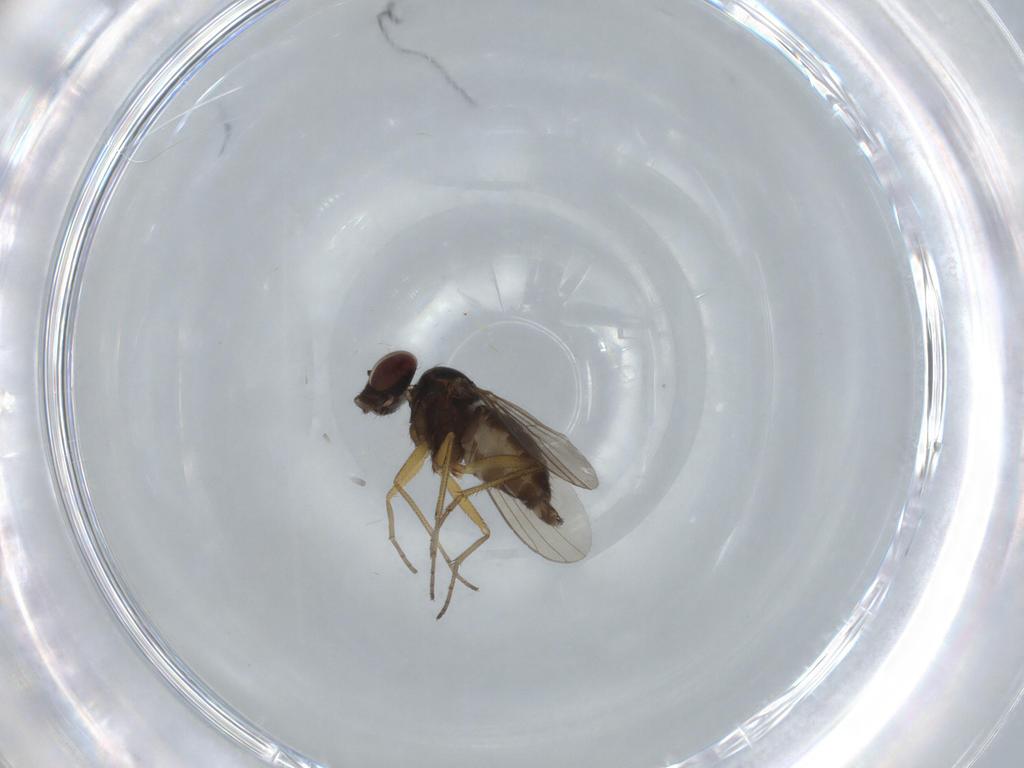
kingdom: Animalia
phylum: Arthropoda
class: Insecta
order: Diptera
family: Dolichopodidae
